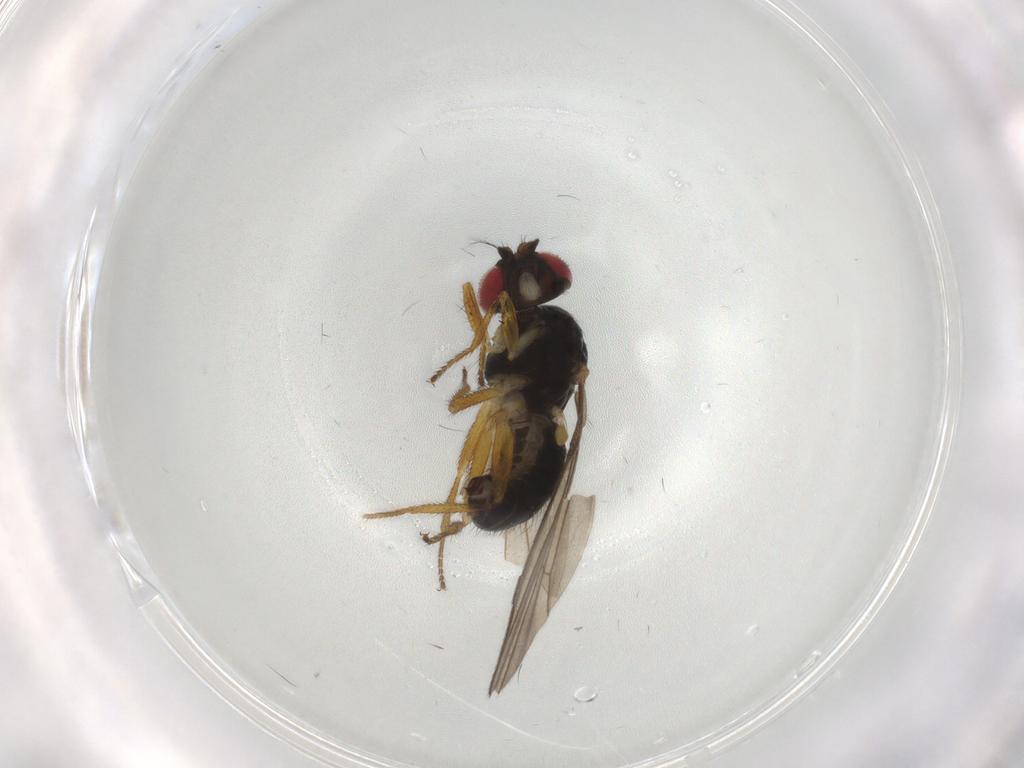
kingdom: Animalia
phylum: Arthropoda
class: Insecta
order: Diptera
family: Drosophilidae
